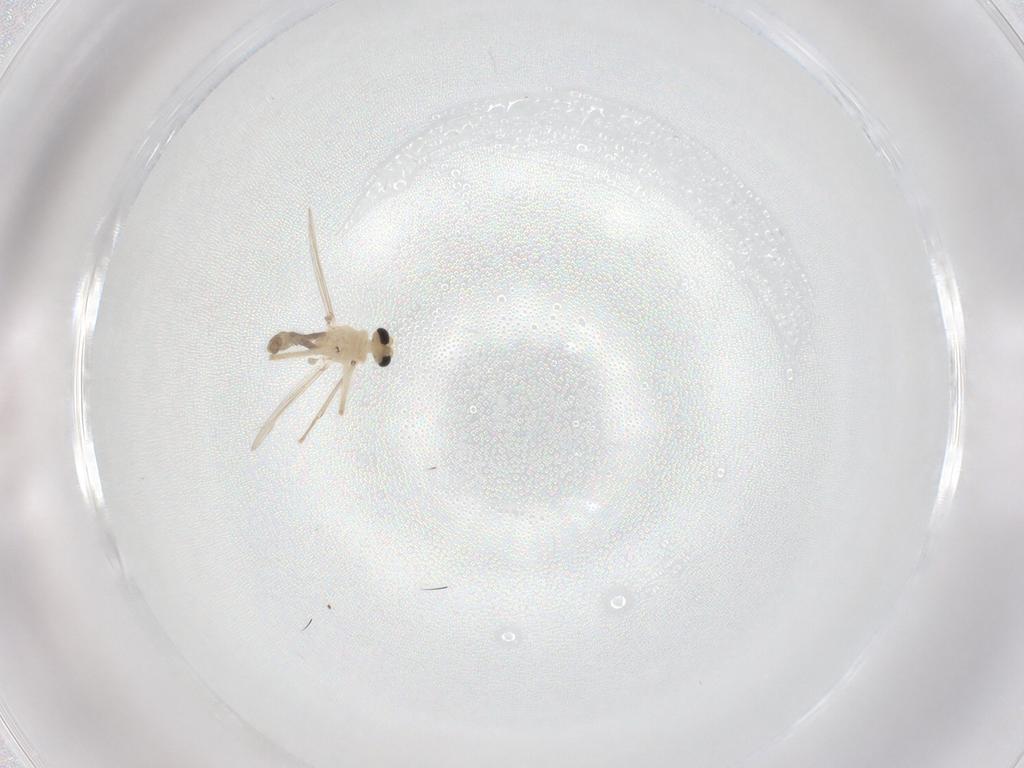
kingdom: Animalia
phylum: Arthropoda
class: Insecta
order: Diptera
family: Chironomidae
